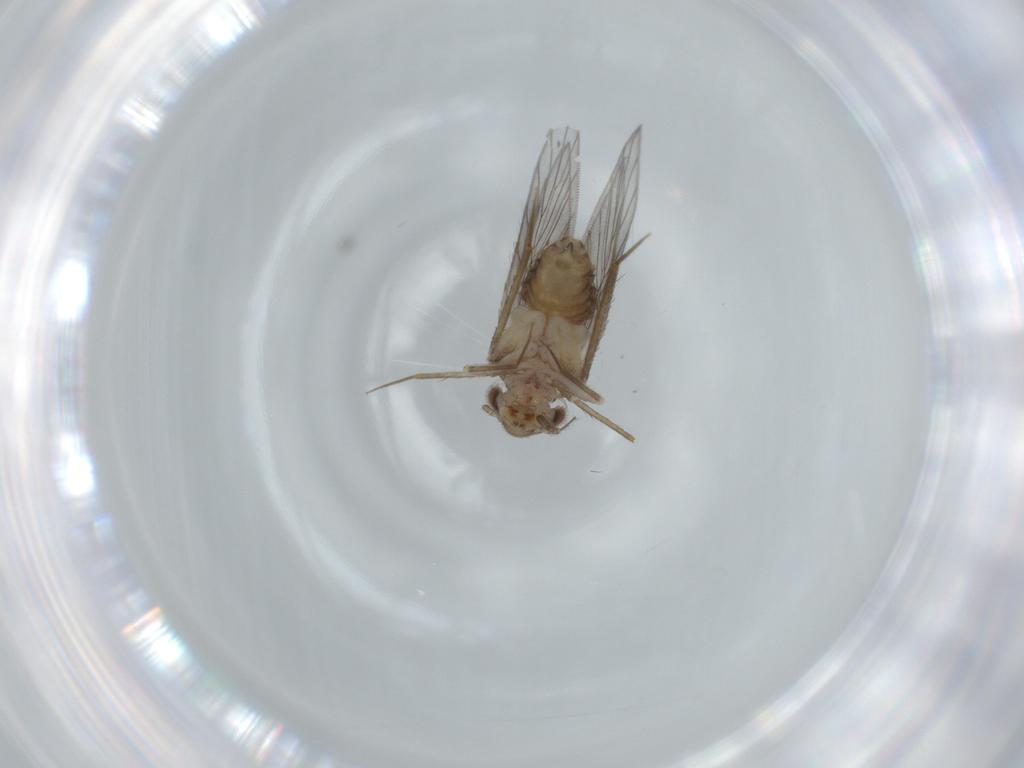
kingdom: Animalia
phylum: Arthropoda
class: Insecta
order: Psocodea
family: Lepidopsocidae
